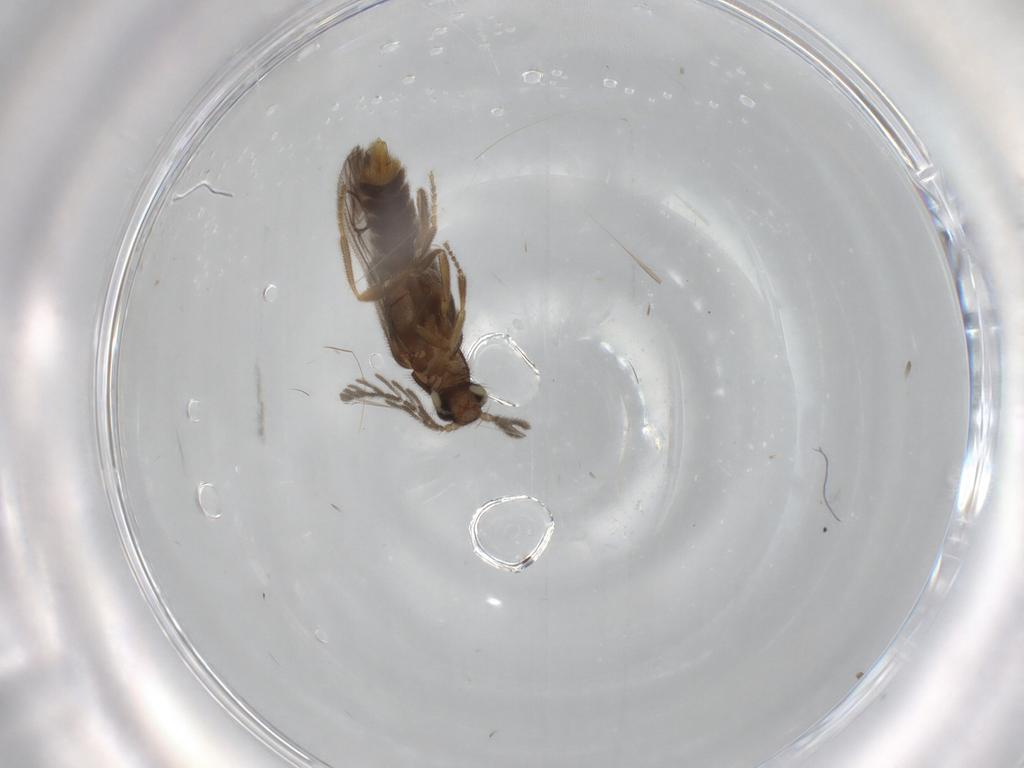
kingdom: Animalia
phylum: Arthropoda
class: Insecta
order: Coleoptera
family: Phengodidae
